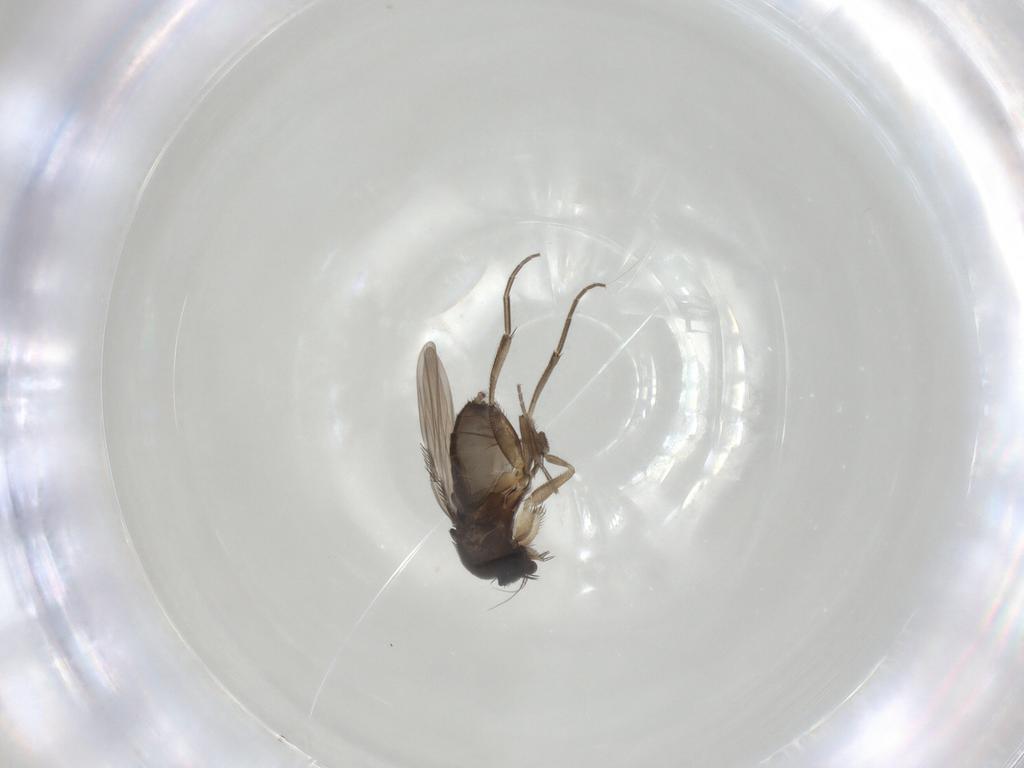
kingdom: Animalia
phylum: Arthropoda
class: Insecta
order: Diptera
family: Phoridae
